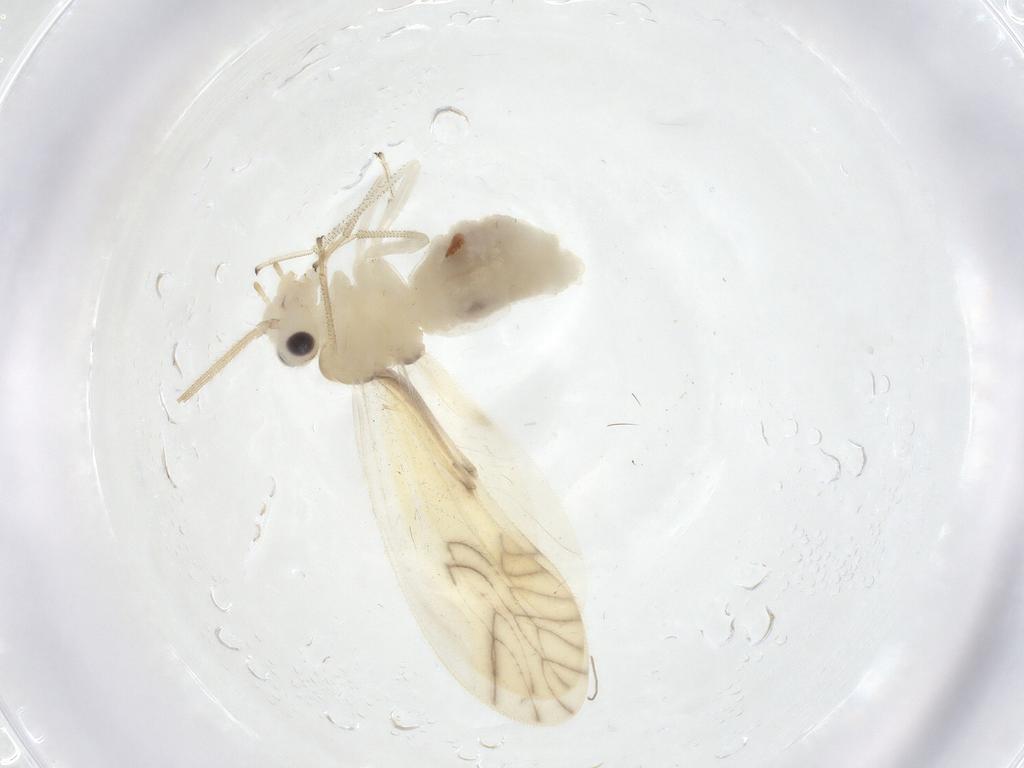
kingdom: Animalia
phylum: Arthropoda
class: Insecta
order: Psocodea
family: Caeciliusidae
